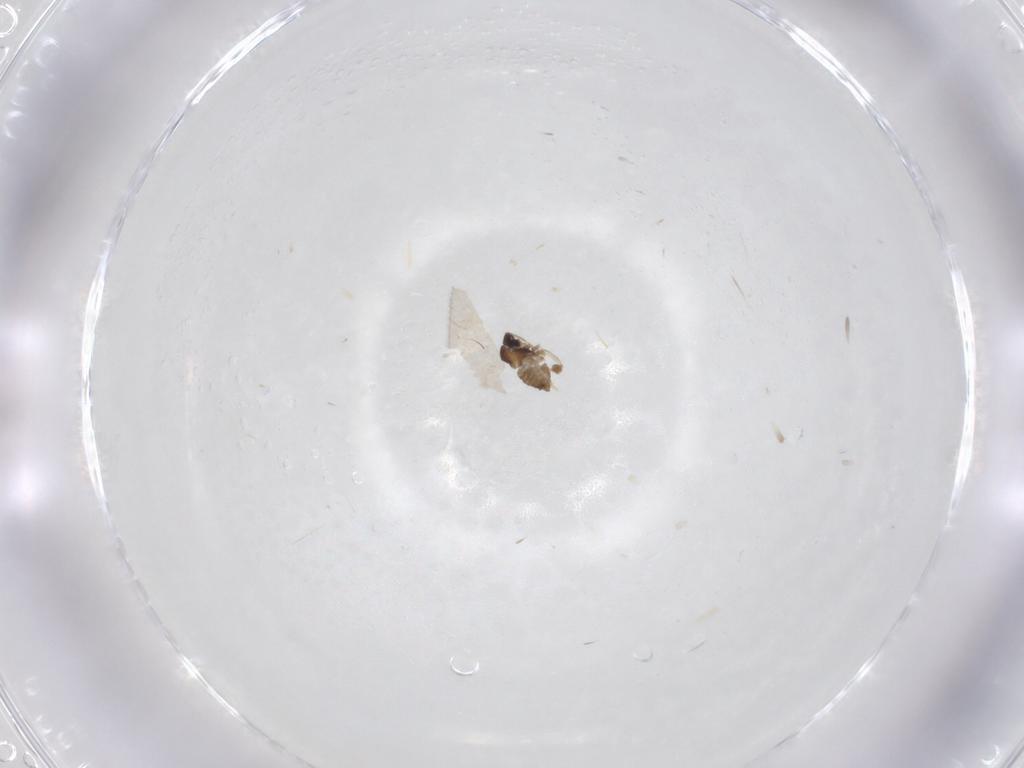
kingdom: Animalia
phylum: Arthropoda
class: Insecta
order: Diptera
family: Cecidomyiidae
